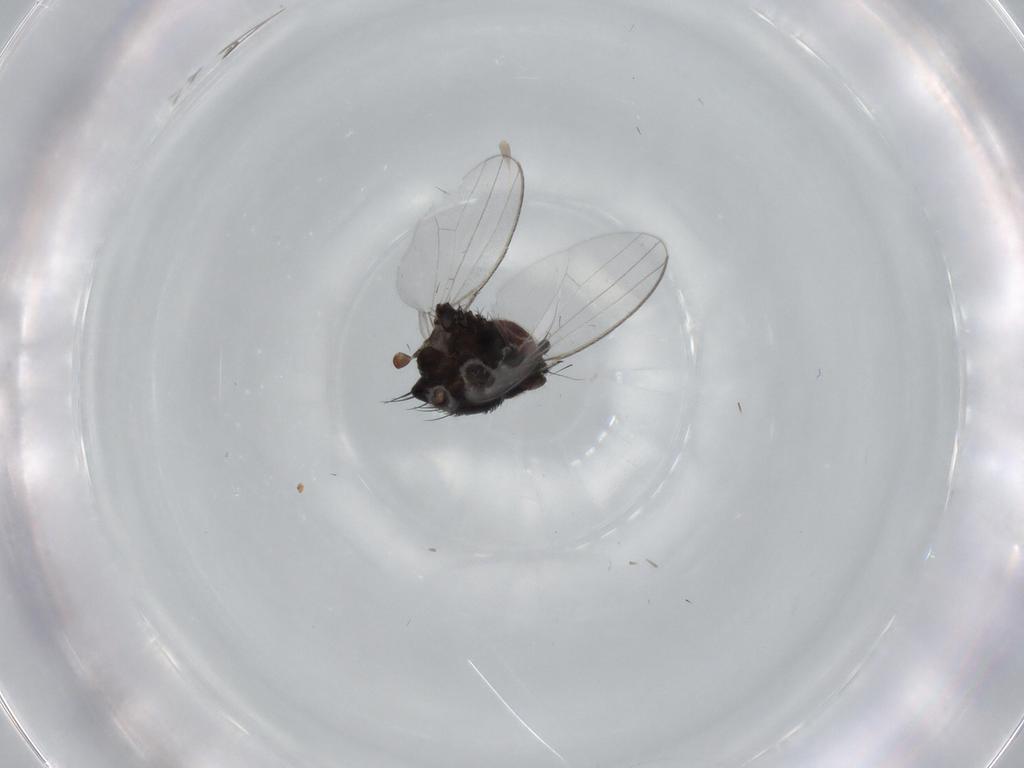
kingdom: Animalia
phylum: Arthropoda
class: Insecta
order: Diptera
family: Milichiidae
